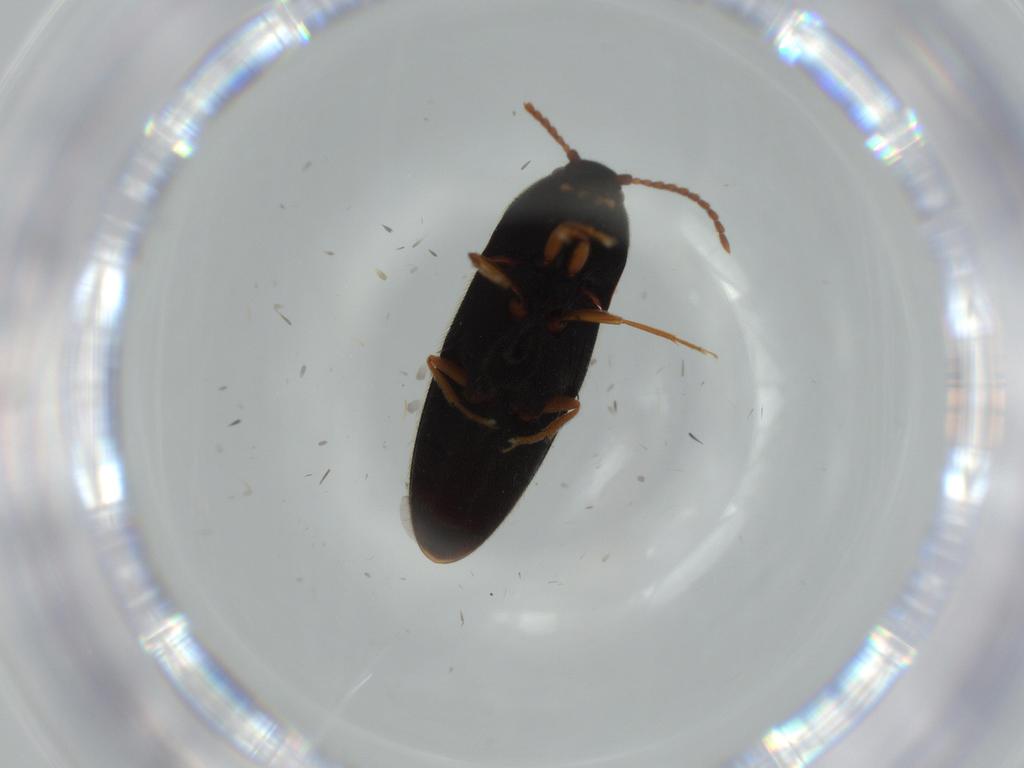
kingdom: Animalia
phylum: Arthropoda
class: Insecta
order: Coleoptera
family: Elateridae
